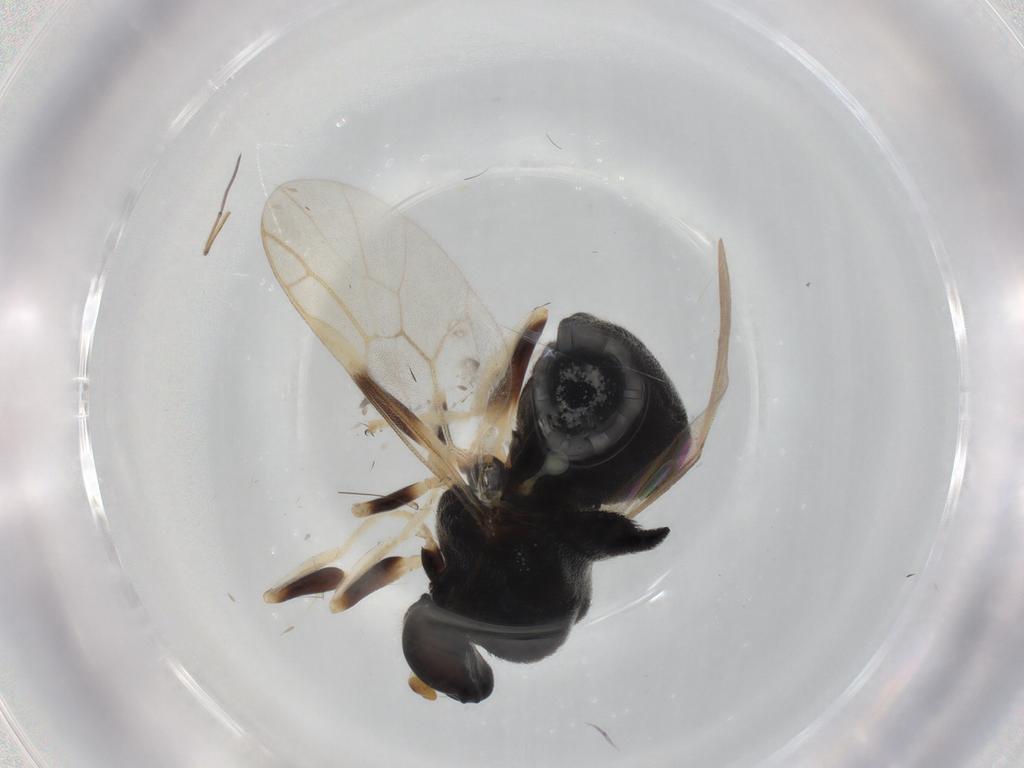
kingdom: Animalia
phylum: Arthropoda
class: Insecta
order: Diptera
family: Stratiomyidae
